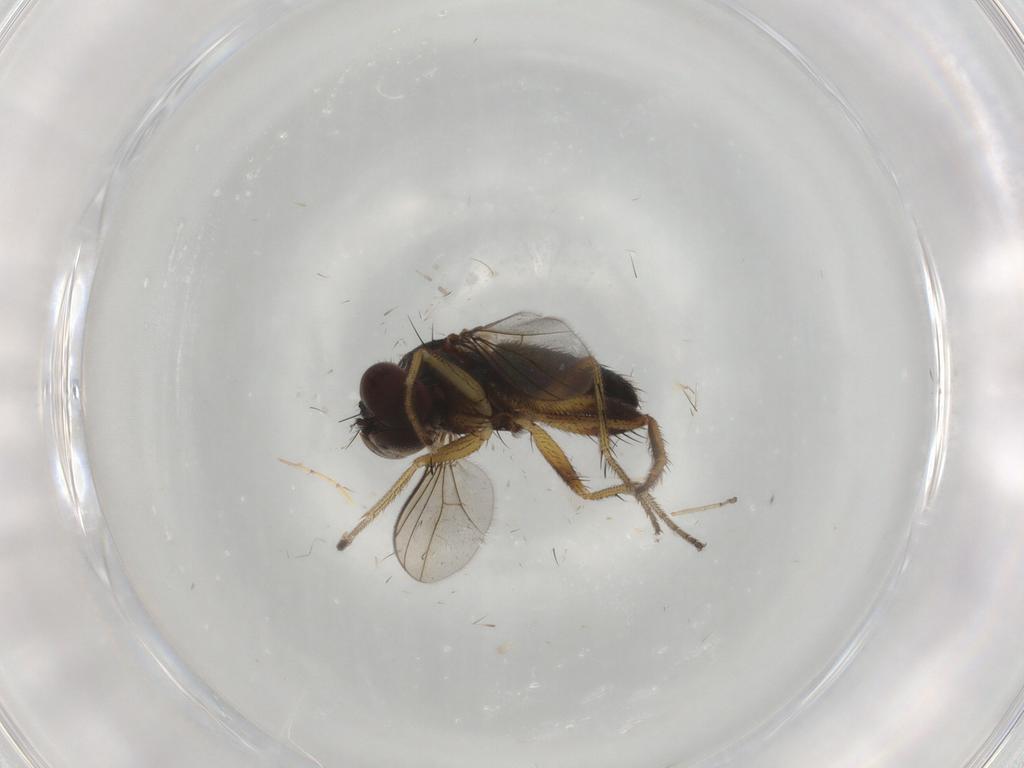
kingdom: Animalia
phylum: Arthropoda
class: Insecta
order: Diptera
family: Dolichopodidae
